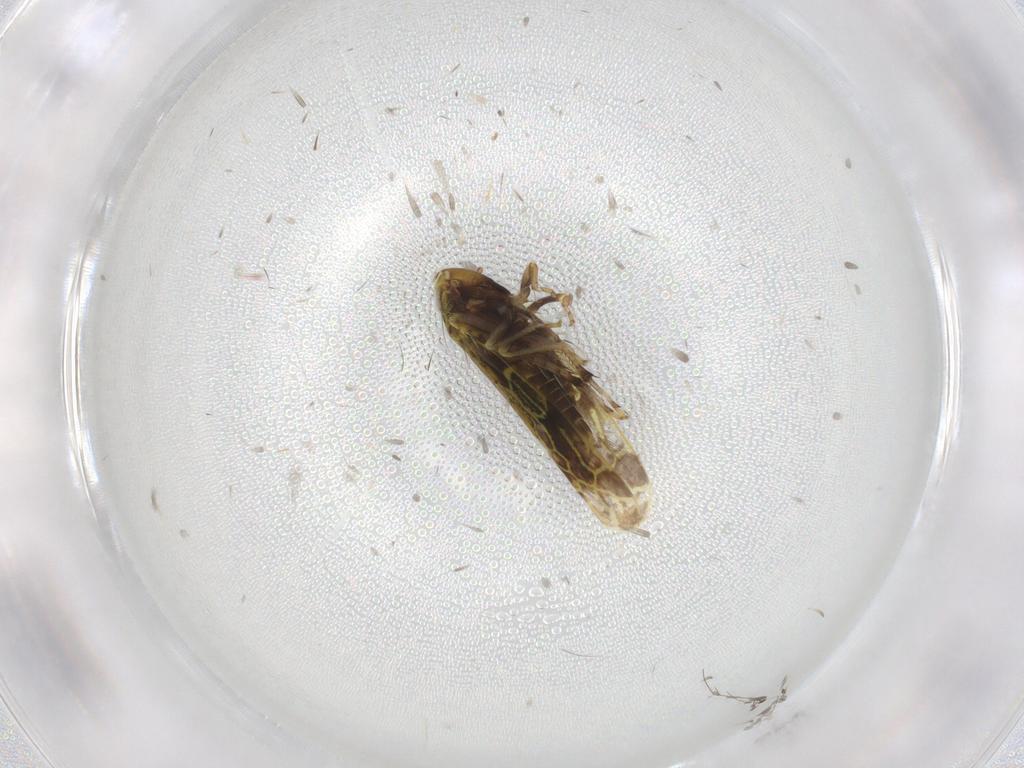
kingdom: Animalia
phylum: Arthropoda
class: Insecta
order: Hemiptera
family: Cicadellidae
